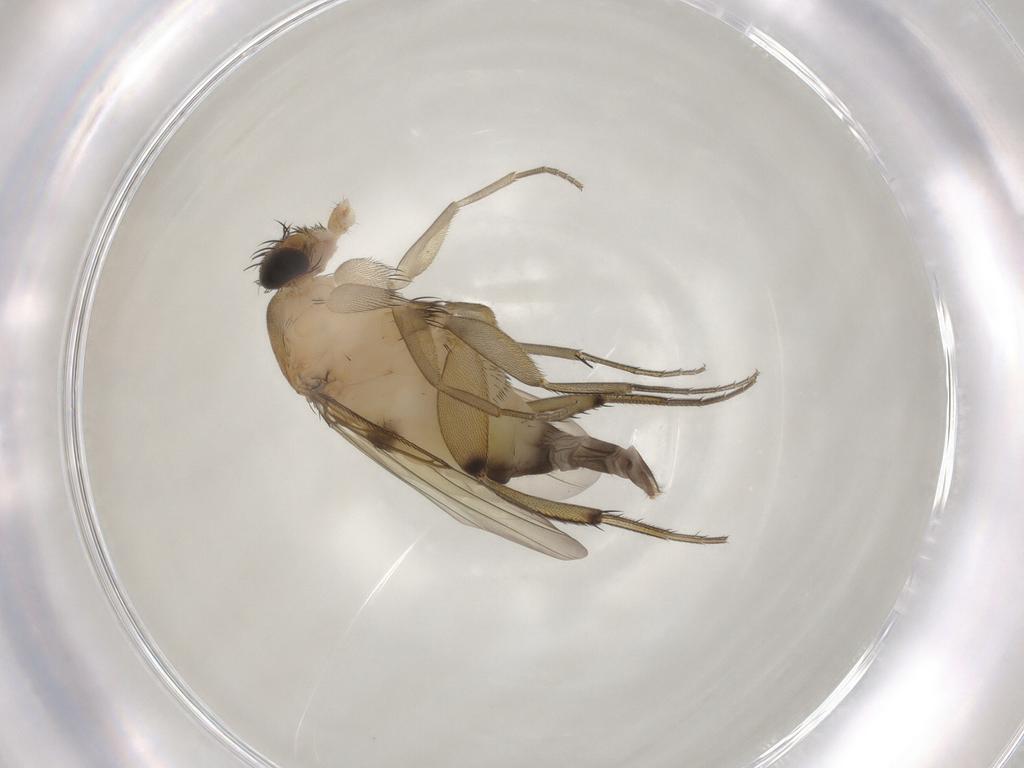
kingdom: Animalia
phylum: Arthropoda
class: Insecta
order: Diptera
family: Phoridae
